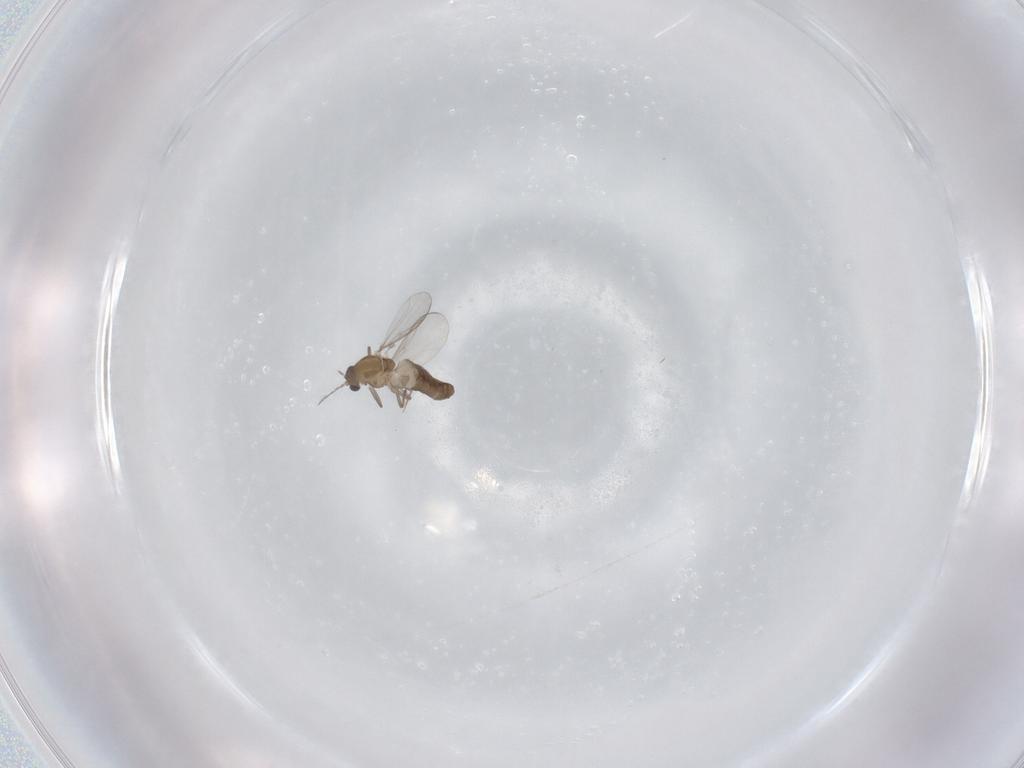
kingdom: Animalia
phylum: Arthropoda
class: Insecta
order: Diptera
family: Chironomidae
